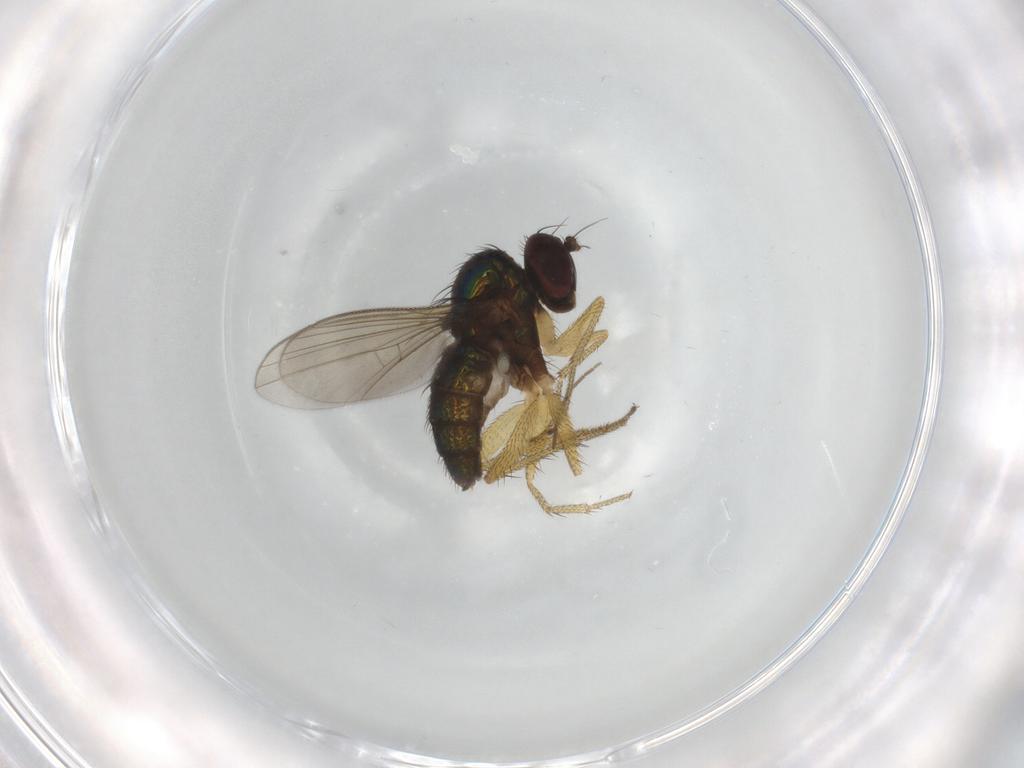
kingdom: Animalia
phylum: Arthropoda
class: Insecta
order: Diptera
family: Dolichopodidae
